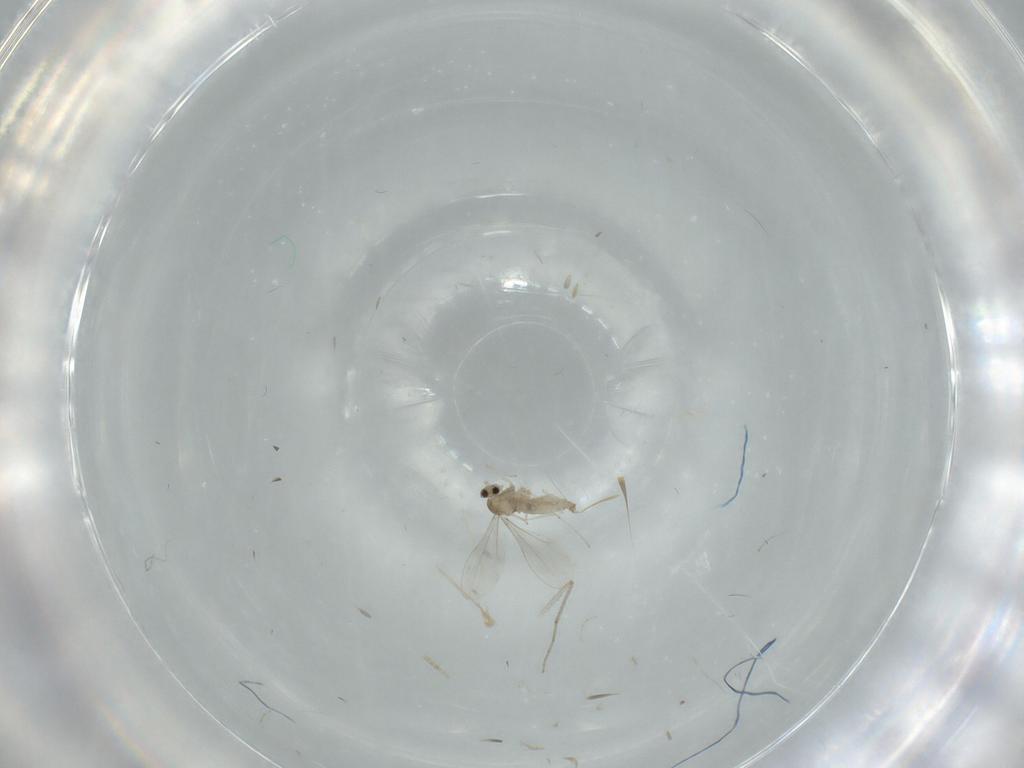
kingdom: Animalia
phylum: Arthropoda
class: Insecta
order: Diptera
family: Cecidomyiidae
